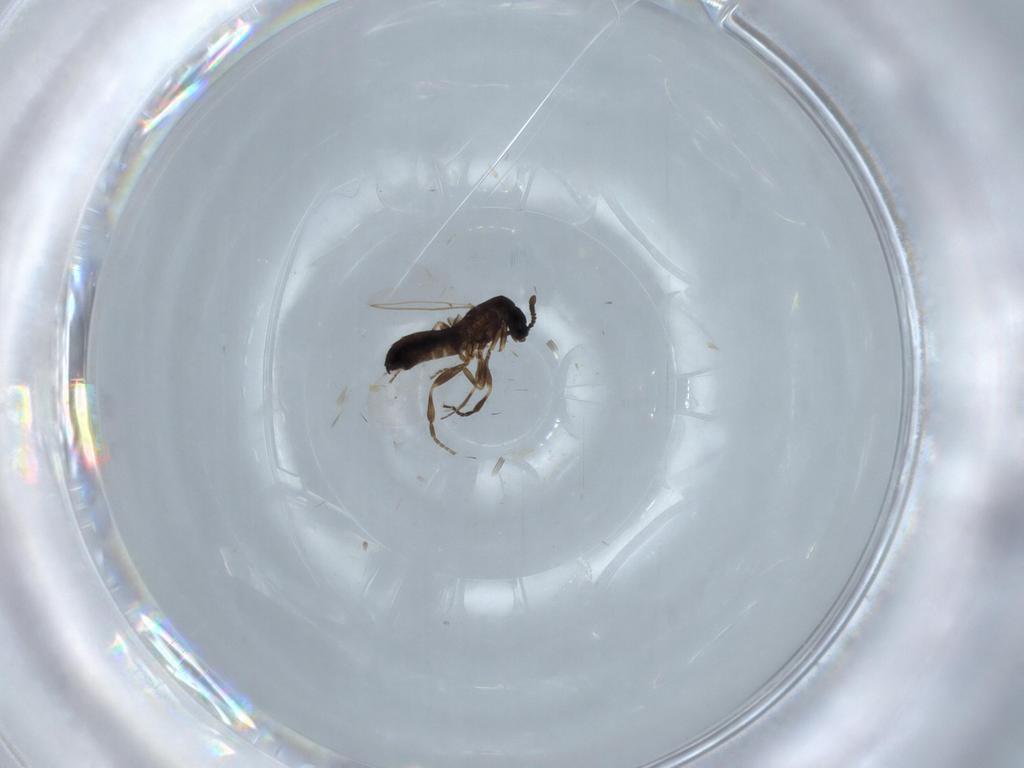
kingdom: Animalia
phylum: Arthropoda
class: Insecta
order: Diptera
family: Scatopsidae
